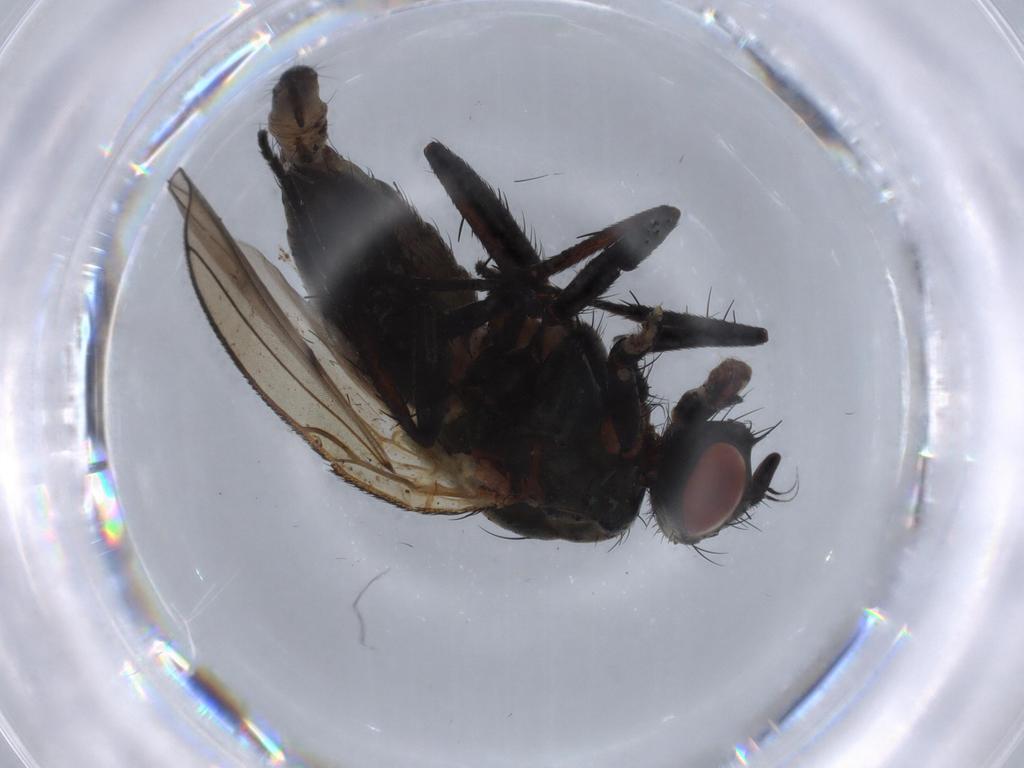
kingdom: Animalia
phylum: Arthropoda
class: Insecta
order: Diptera
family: Sciaridae
